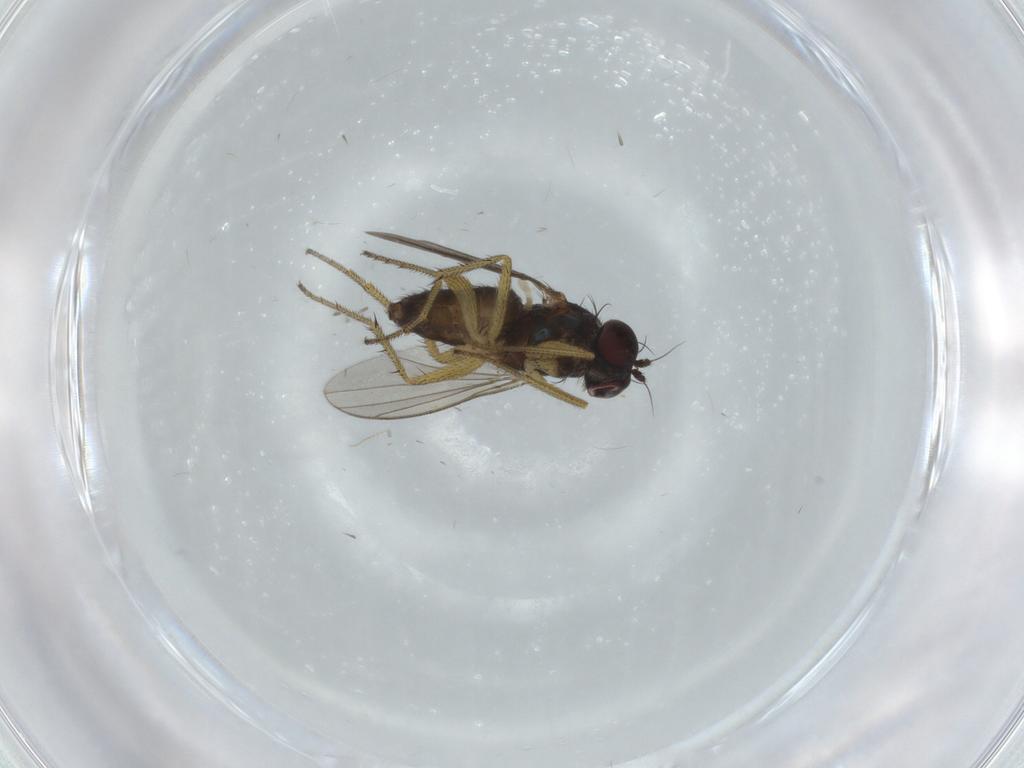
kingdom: Animalia
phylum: Arthropoda
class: Insecta
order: Diptera
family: Dolichopodidae
